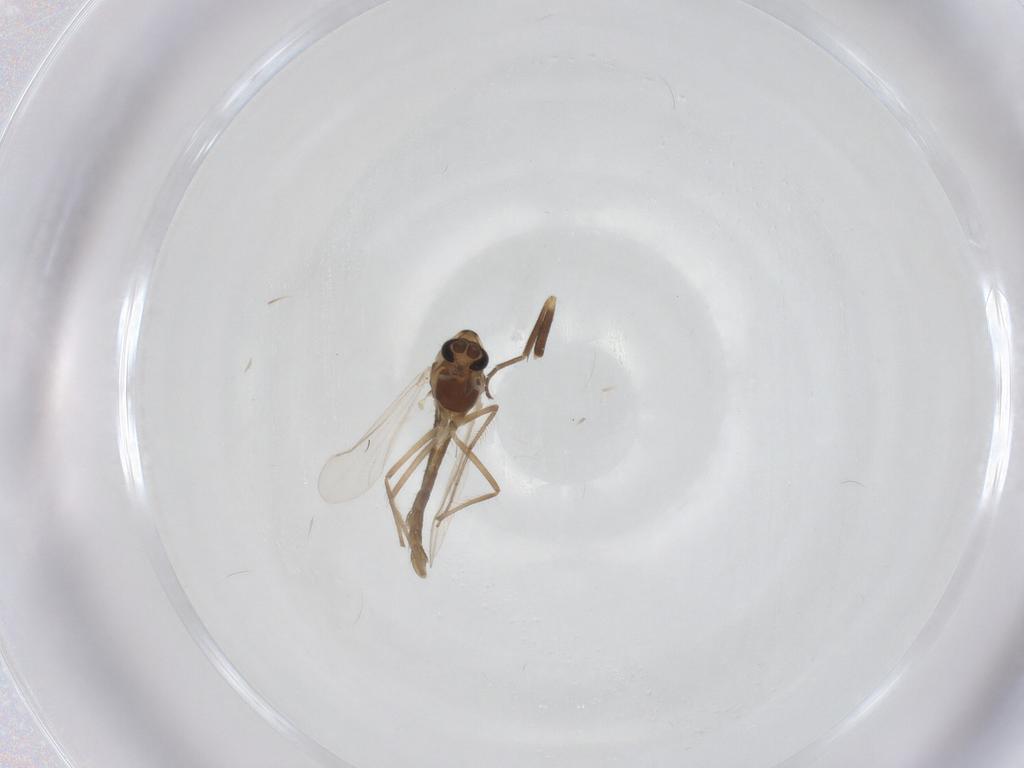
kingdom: Animalia
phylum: Arthropoda
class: Insecta
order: Diptera
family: Chironomidae
